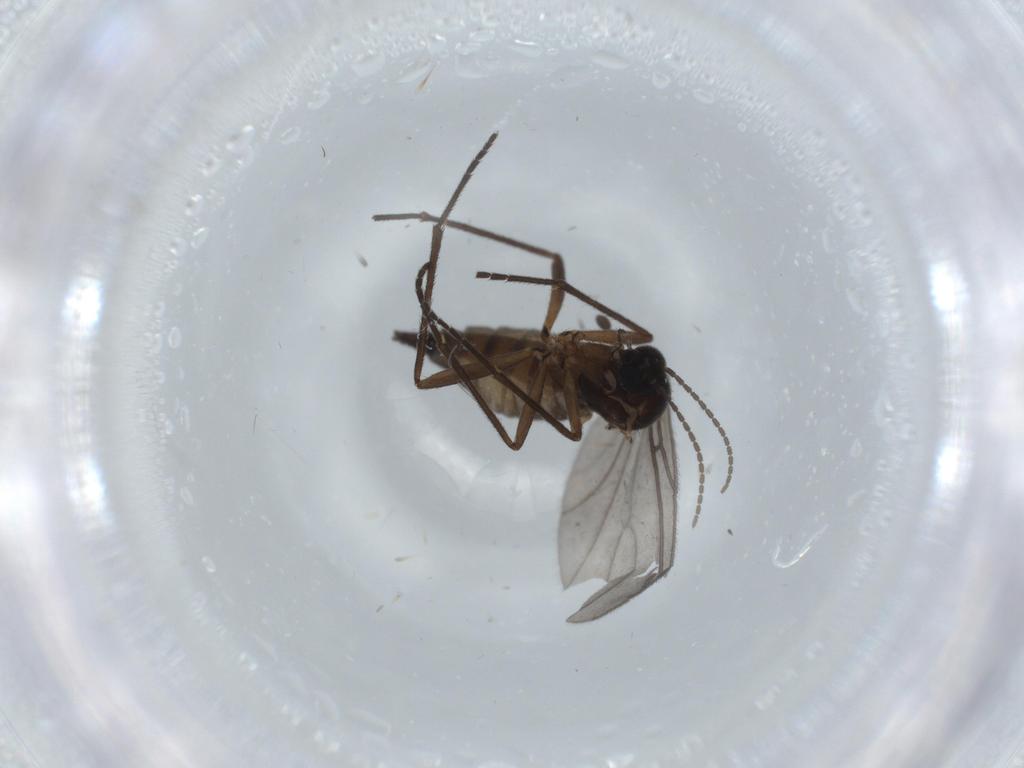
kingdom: Animalia
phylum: Arthropoda
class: Insecta
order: Diptera
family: Sciaridae
